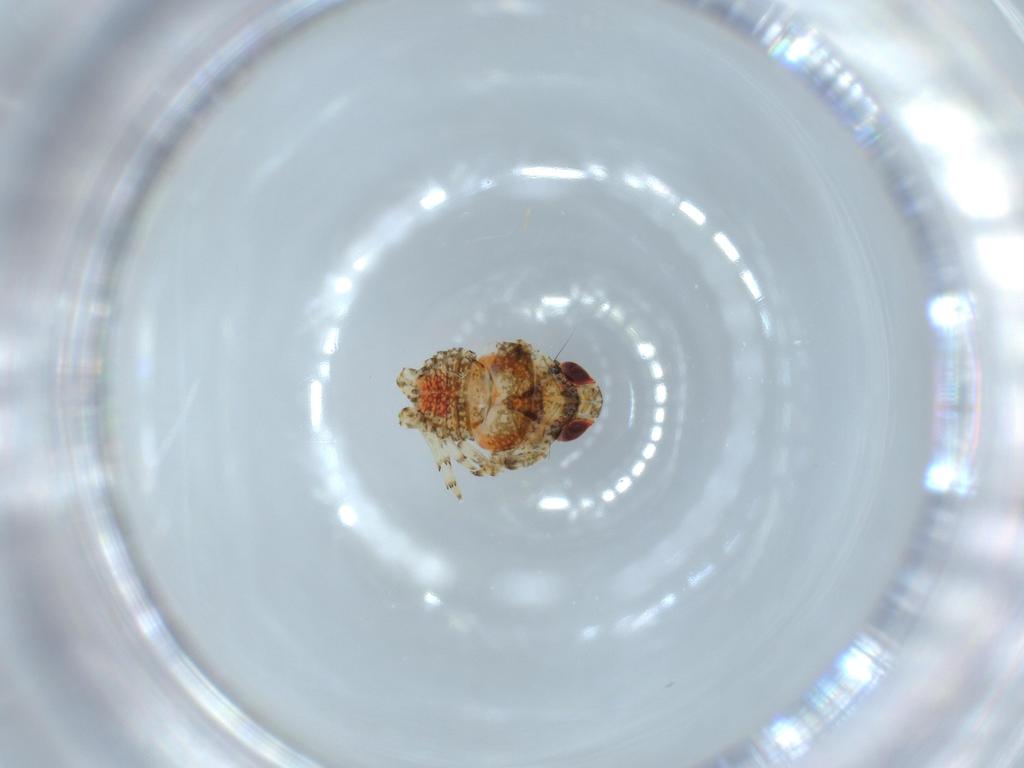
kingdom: Animalia
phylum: Arthropoda
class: Insecta
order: Hemiptera
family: Issidae
